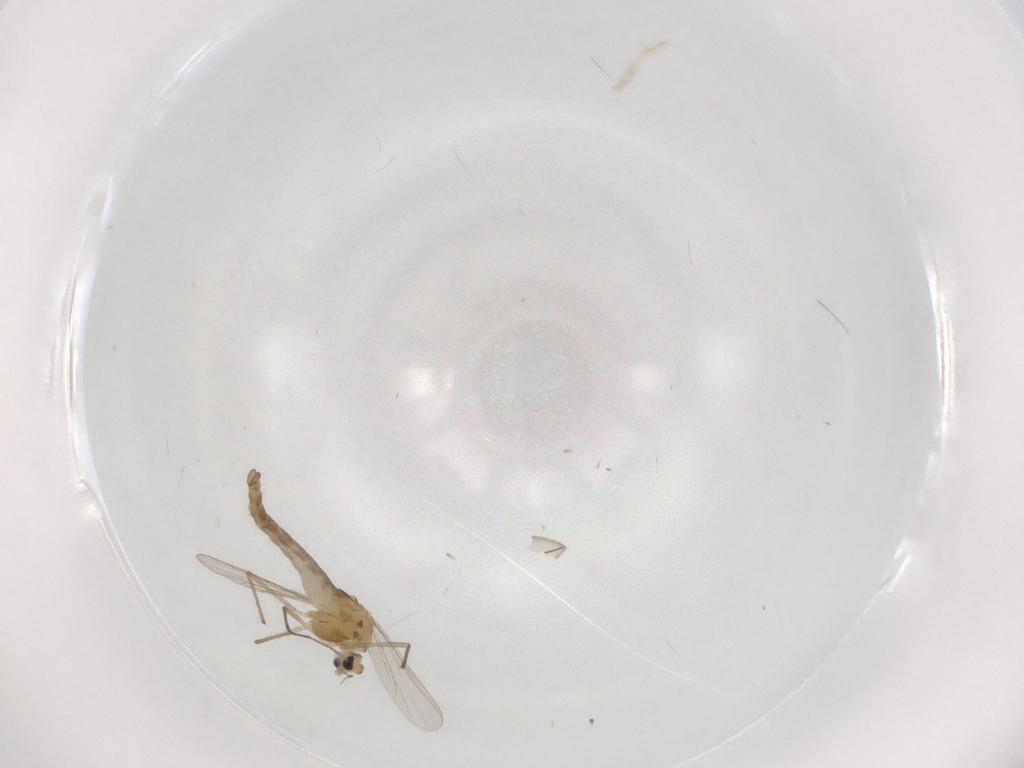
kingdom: Animalia
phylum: Arthropoda
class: Insecta
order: Diptera
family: Chironomidae
